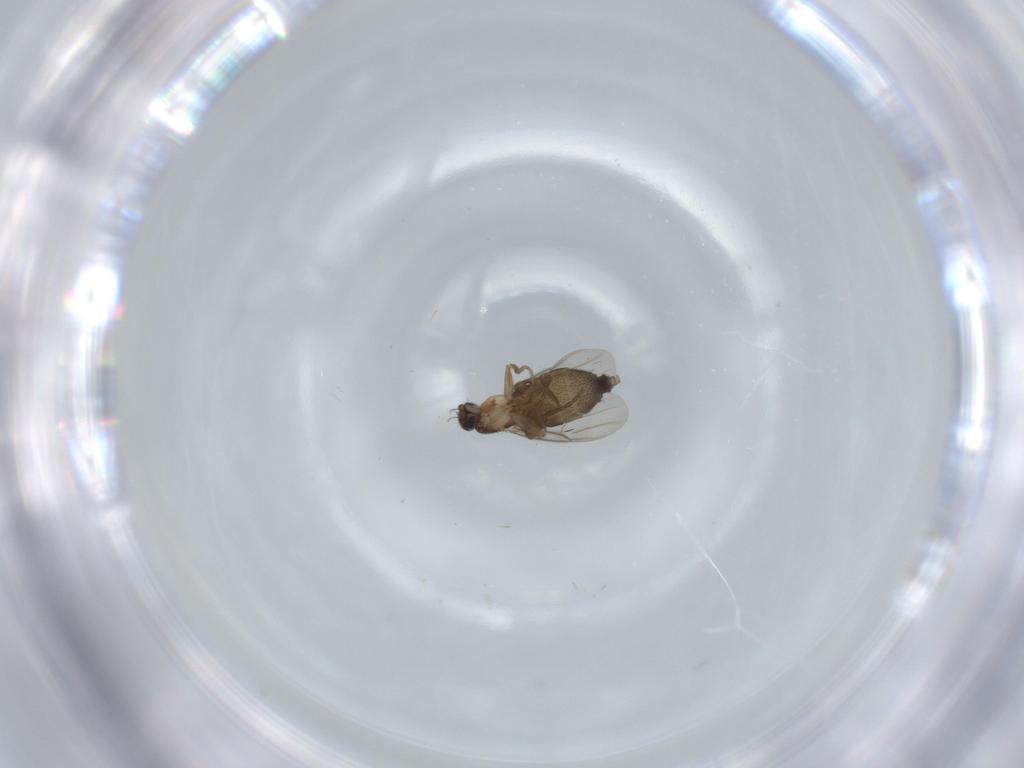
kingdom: Animalia
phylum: Arthropoda
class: Insecta
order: Diptera
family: Phoridae
